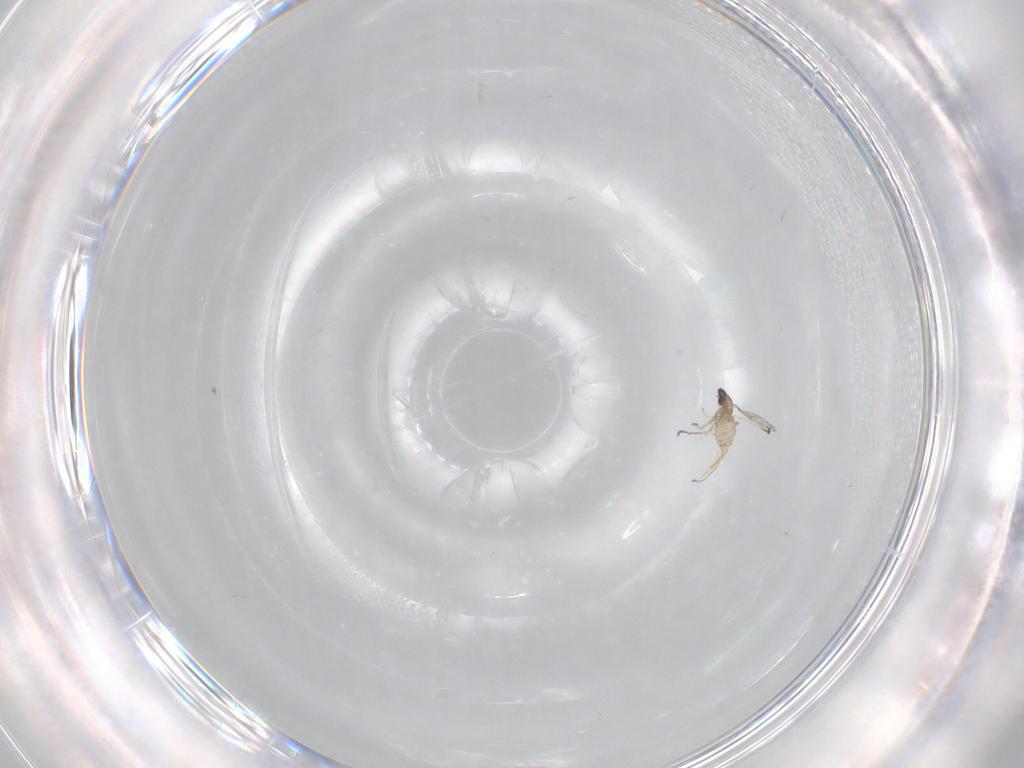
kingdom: Animalia
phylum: Arthropoda
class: Insecta
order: Diptera
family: Cecidomyiidae
